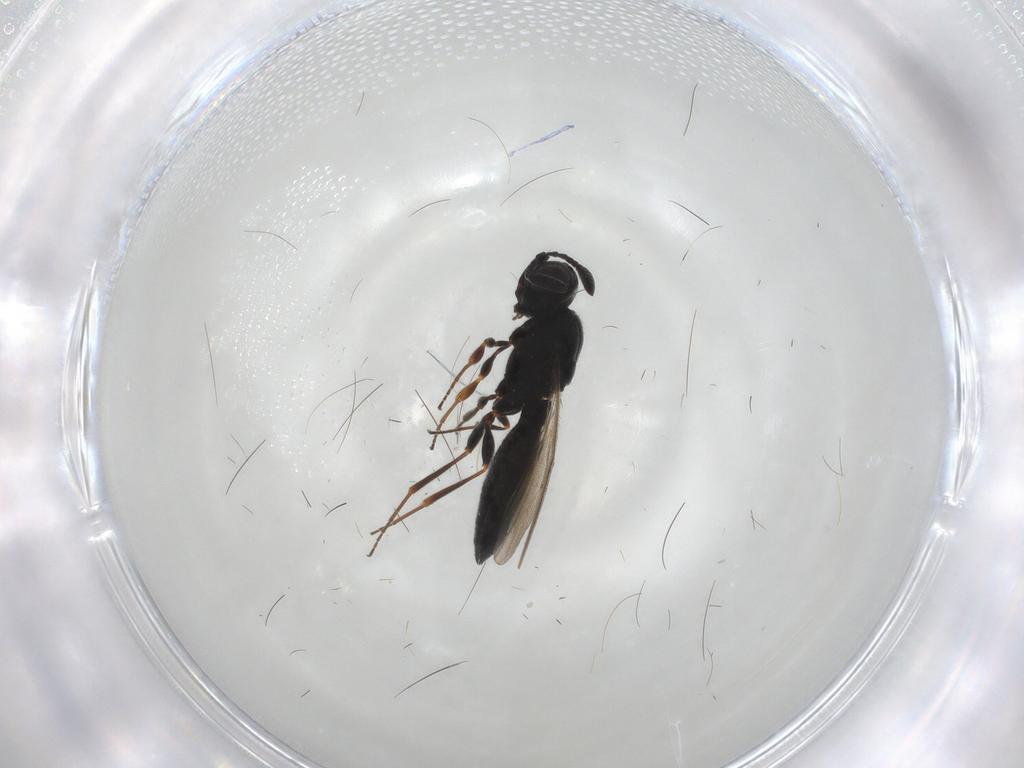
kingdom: Animalia
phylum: Arthropoda
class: Insecta
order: Hymenoptera
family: Scelionidae
